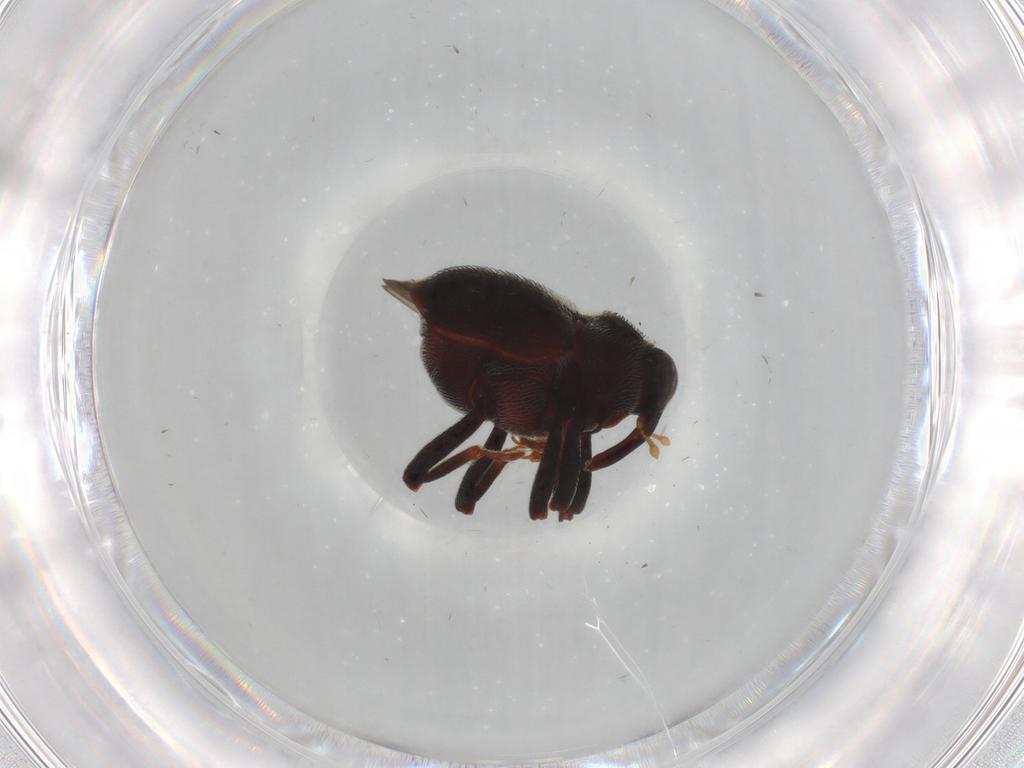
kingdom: Animalia
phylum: Arthropoda
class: Insecta
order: Coleoptera
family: Curculionidae
